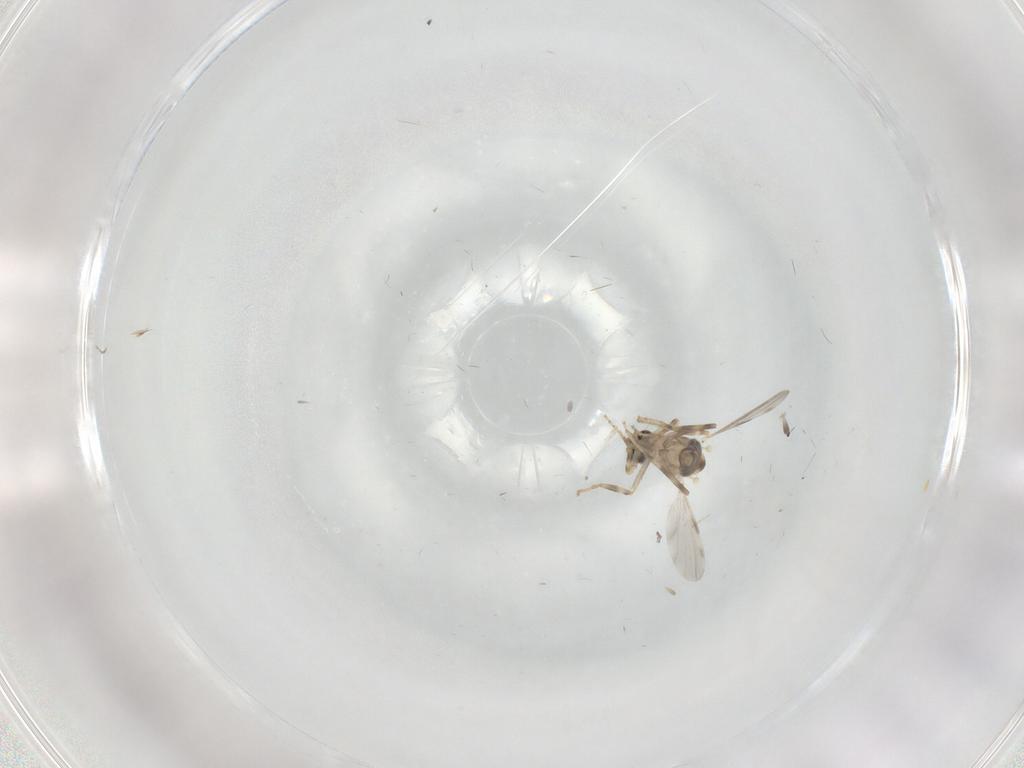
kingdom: Animalia
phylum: Arthropoda
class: Insecta
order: Diptera
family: Ceratopogonidae
